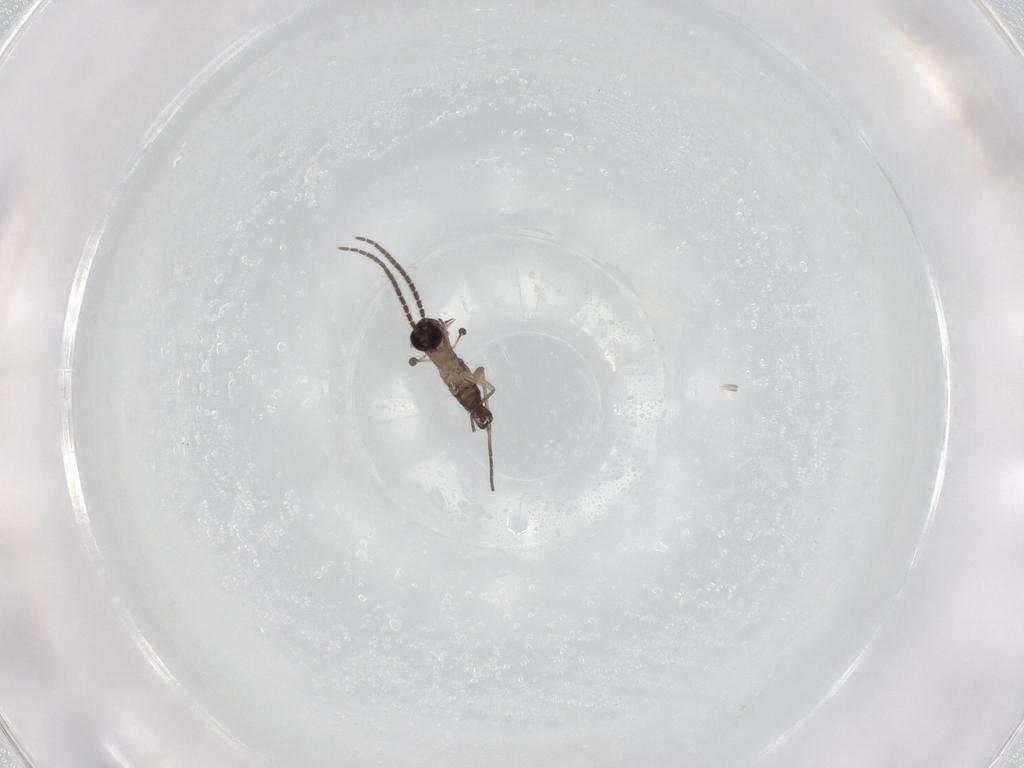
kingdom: Animalia
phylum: Arthropoda
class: Insecta
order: Diptera
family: Sciaridae
